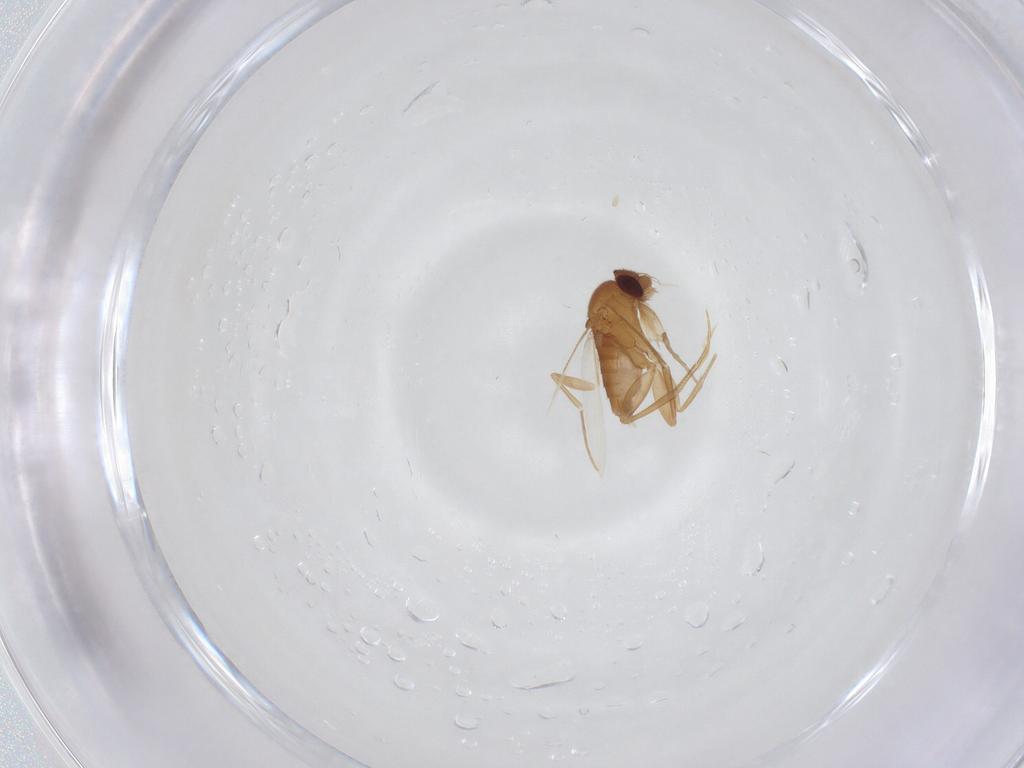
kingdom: Animalia
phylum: Arthropoda
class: Insecta
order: Diptera
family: Phoridae
